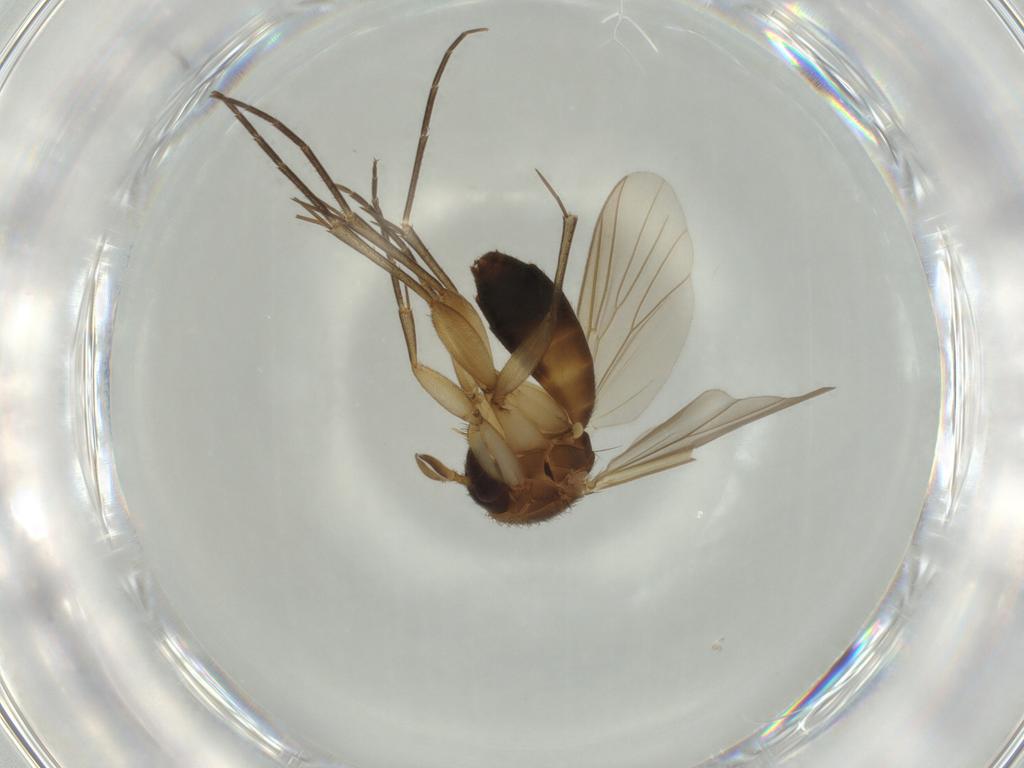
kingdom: Animalia
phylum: Arthropoda
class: Insecta
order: Diptera
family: Mycetophilidae
